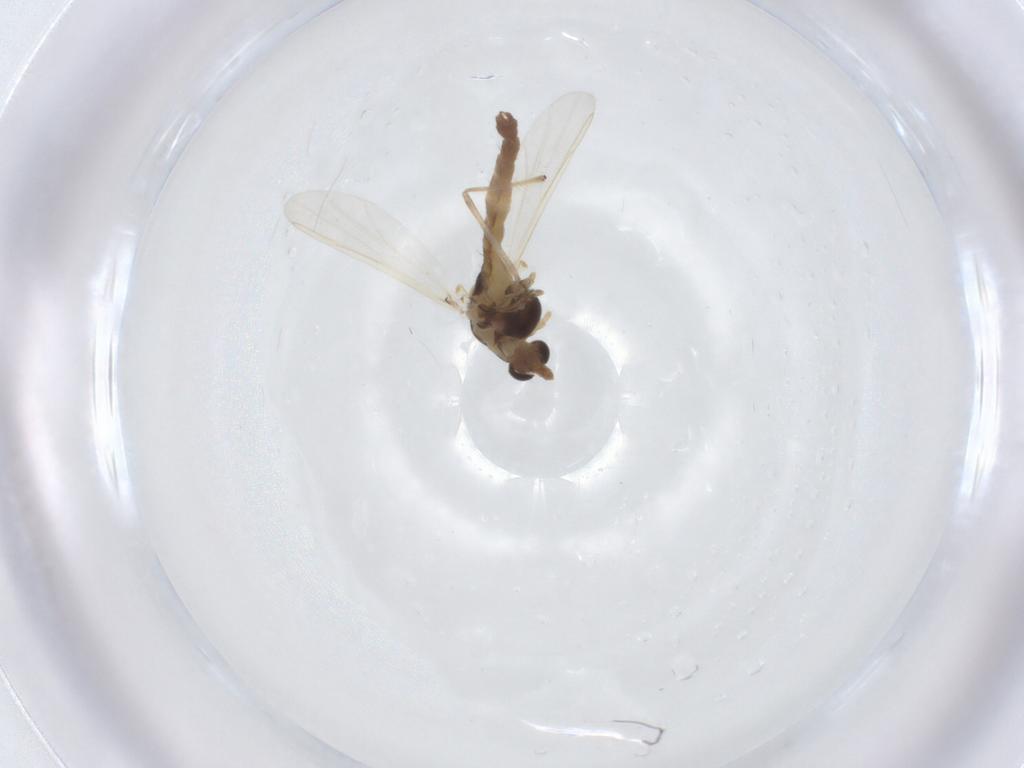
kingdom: Animalia
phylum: Arthropoda
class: Insecta
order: Diptera
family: Chironomidae
